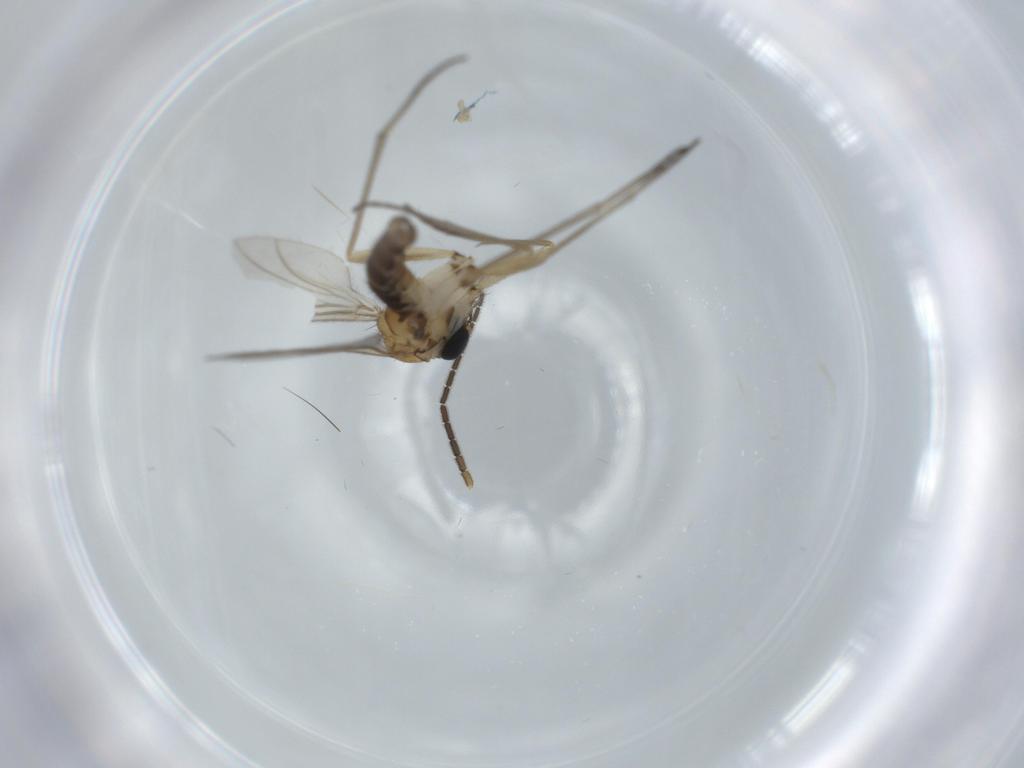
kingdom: Animalia
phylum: Arthropoda
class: Insecta
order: Diptera
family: Sciaridae
